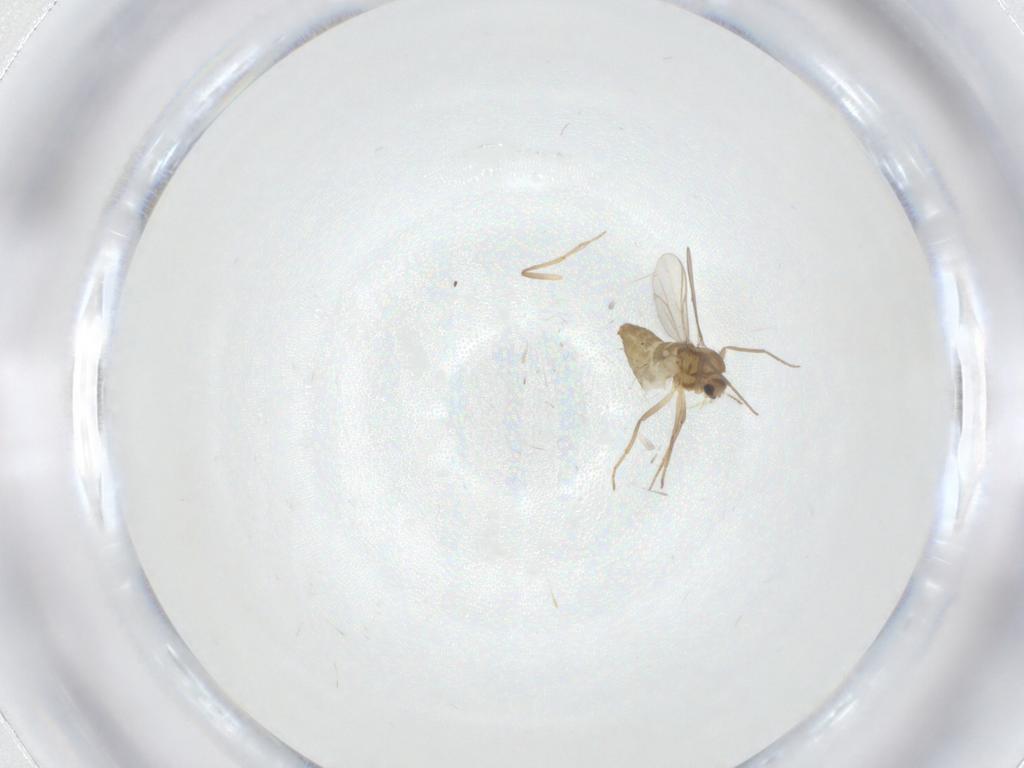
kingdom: Animalia
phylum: Arthropoda
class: Insecta
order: Diptera
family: Chironomidae
